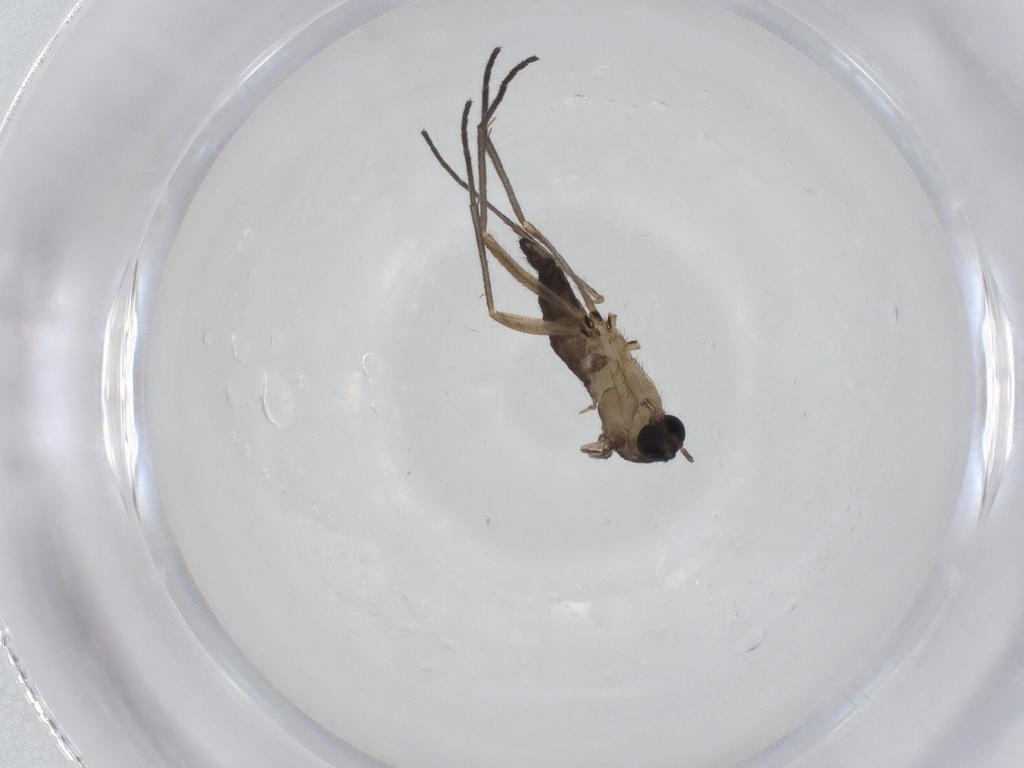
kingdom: Animalia
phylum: Arthropoda
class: Insecta
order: Diptera
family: Sciaridae
